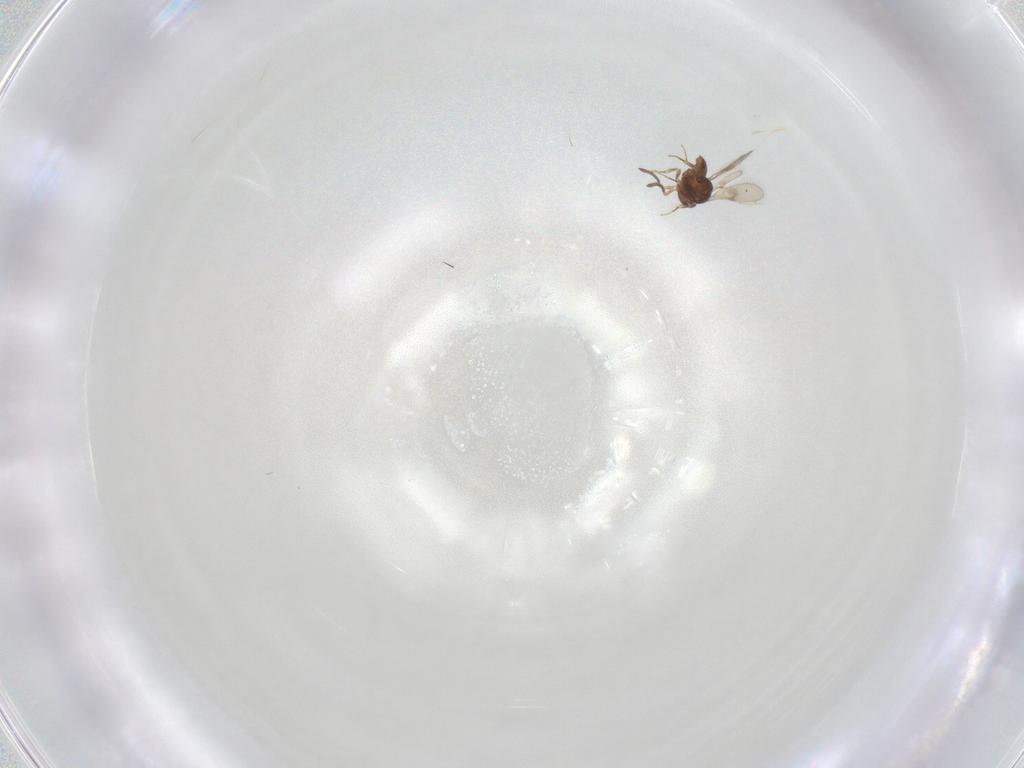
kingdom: Animalia
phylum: Arthropoda
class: Insecta
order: Hymenoptera
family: Scelionidae
